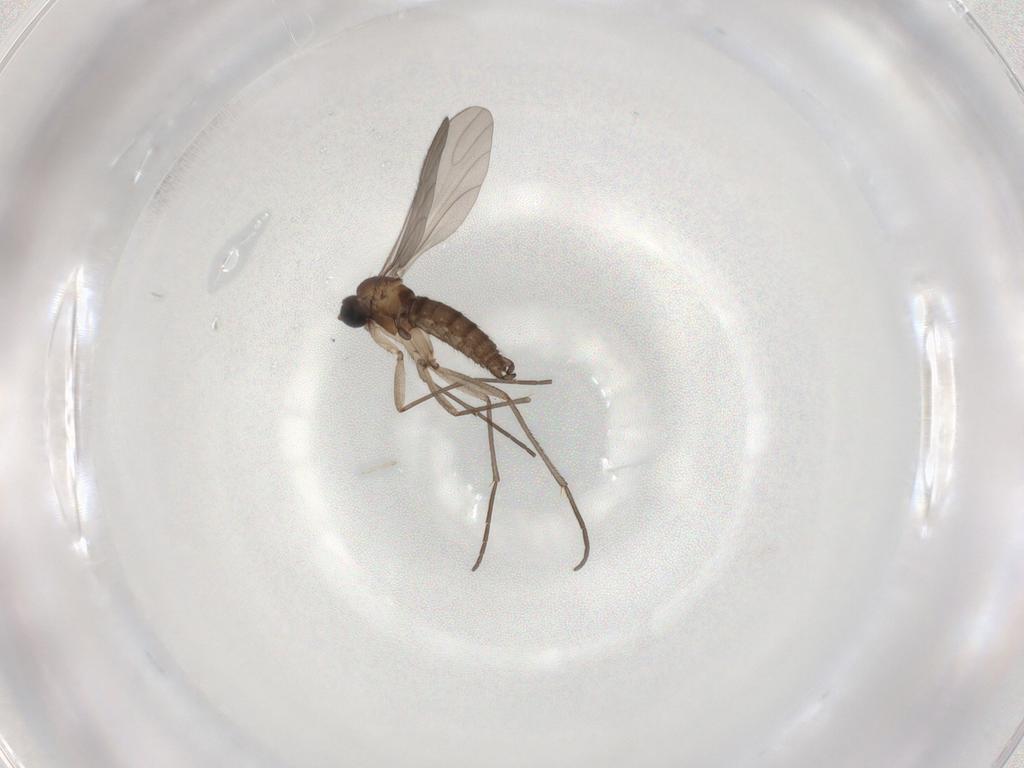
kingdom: Animalia
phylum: Arthropoda
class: Insecta
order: Diptera
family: Sciaridae
